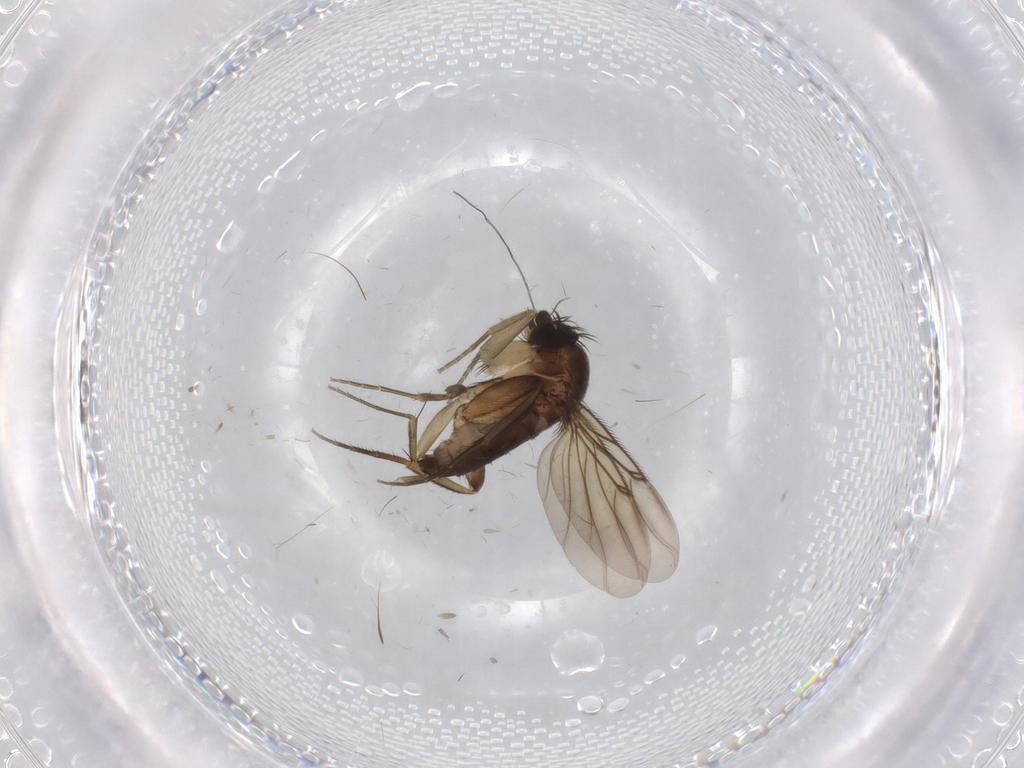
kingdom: Animalia
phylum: Arthropoda
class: Insecta
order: Diptera
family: Phoridae
